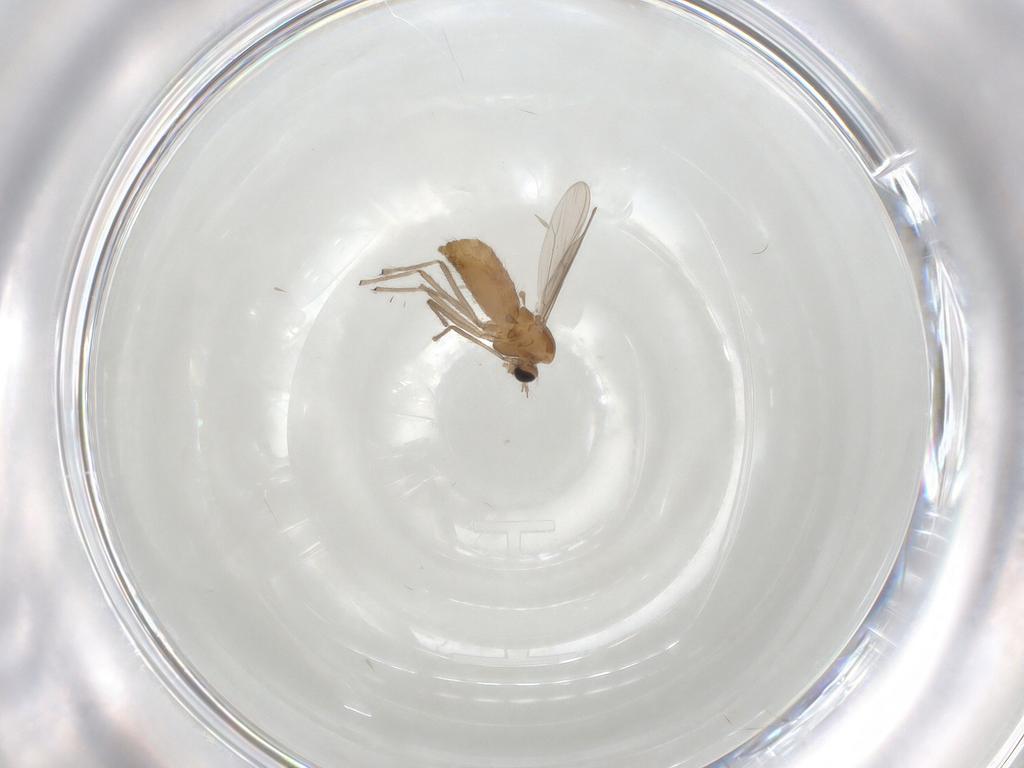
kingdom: Animalia
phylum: Arthropoda
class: Insecta
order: Diptera
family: Chironomidae
